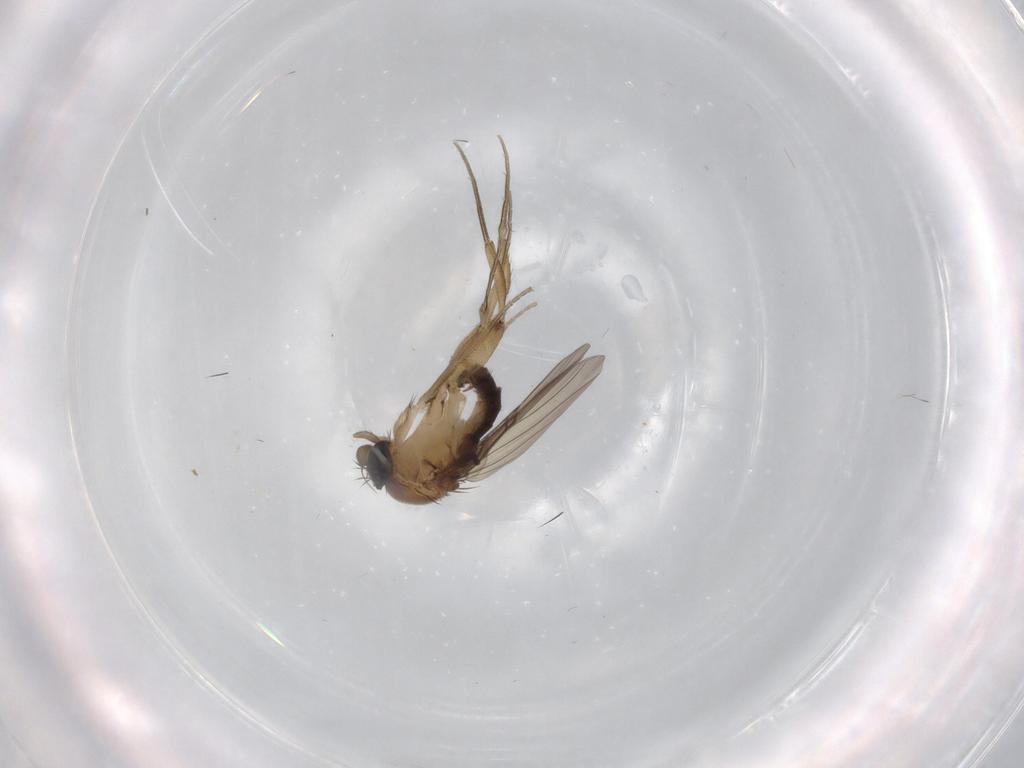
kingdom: Animalia
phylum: Arthropoda
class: Insecta
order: Diptera
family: Phoridae
